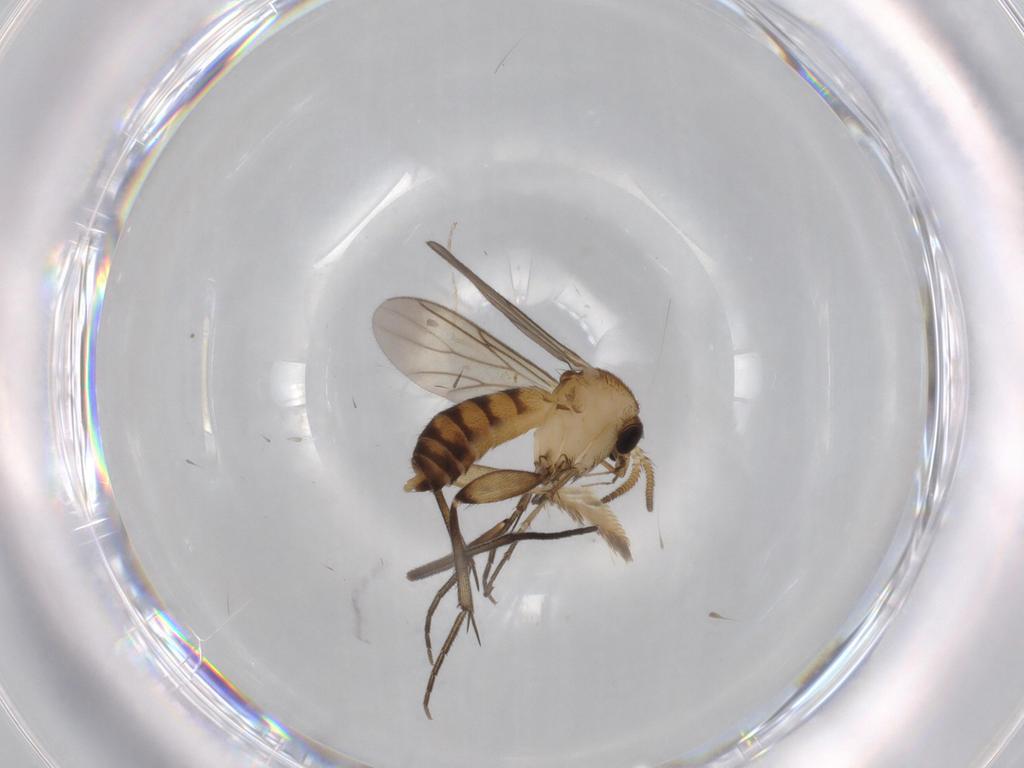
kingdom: Animalia
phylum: Arthropoda
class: Insecta
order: Diptera
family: Mycetophilidae
